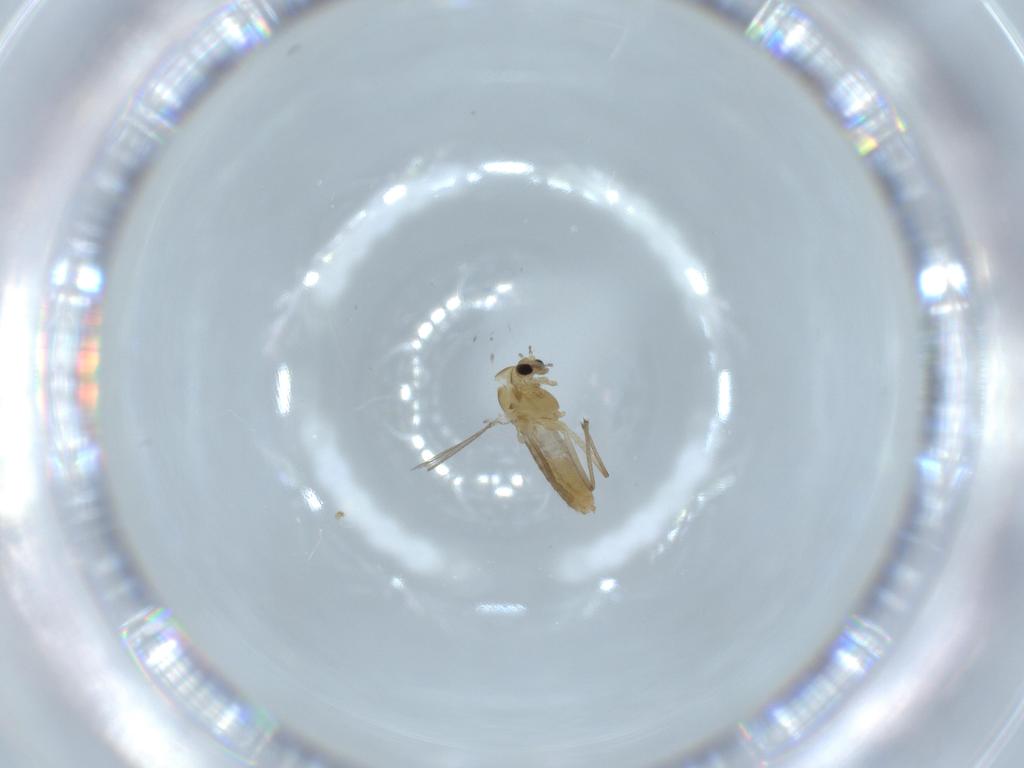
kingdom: Animalia
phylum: Arthropoda
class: Insecta
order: Diptera
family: Chironomidae
